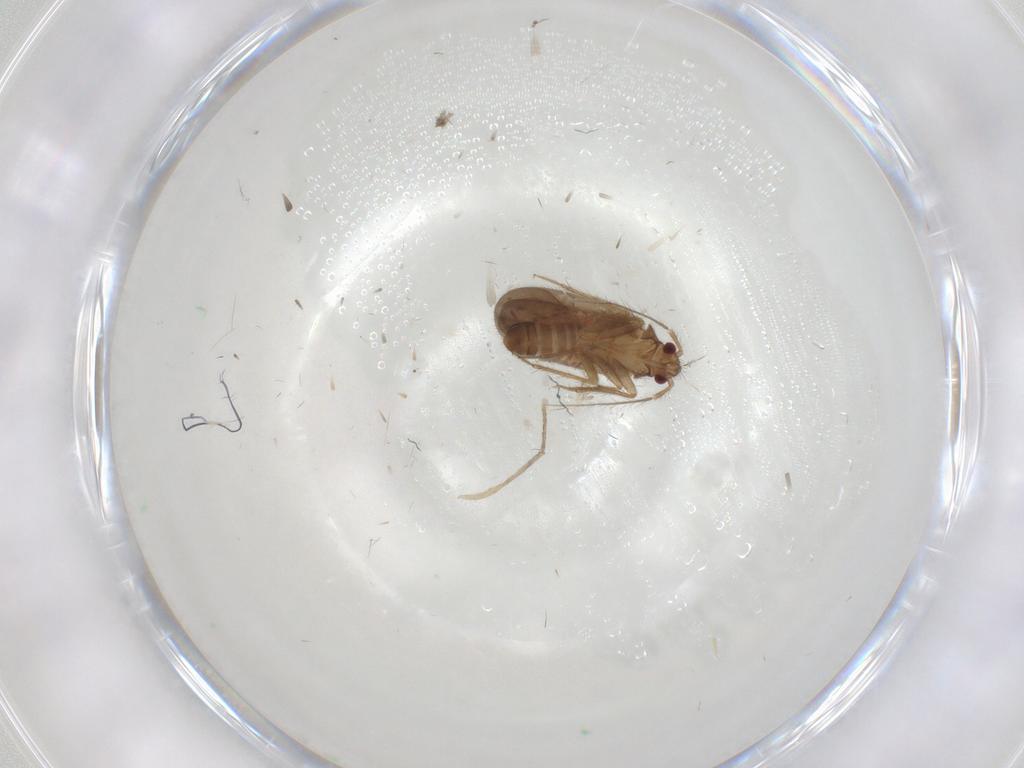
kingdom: Animalia
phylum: Arthropoda
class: Insecta
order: Hemiptera
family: Ceratocombidae
